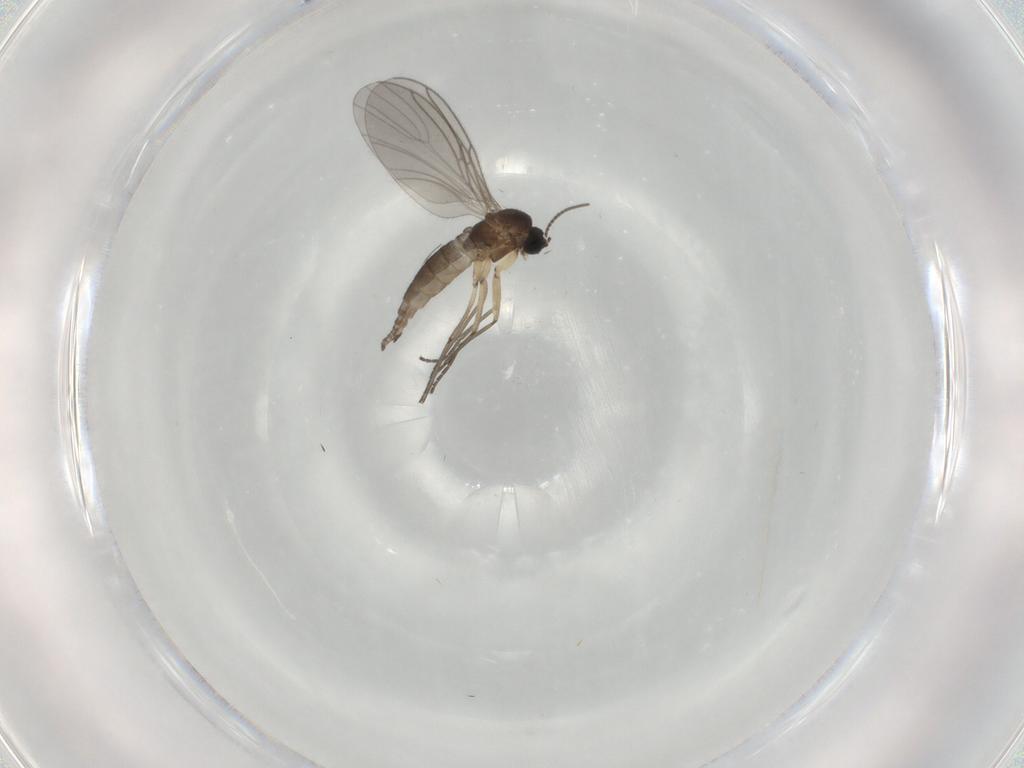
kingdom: Animalia
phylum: Arthropoda
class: Insecta
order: Diptera
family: Sciaridae
